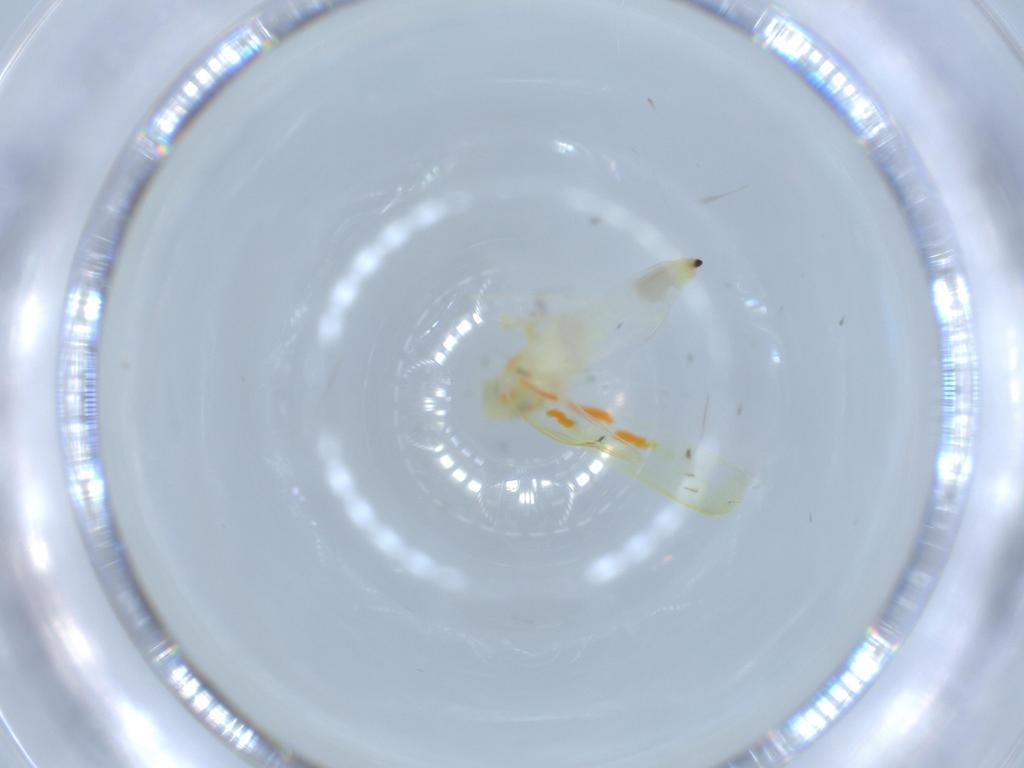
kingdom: Animalia
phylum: Arthropoda
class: Insecta
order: Hemiptera
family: Cicadellidae
